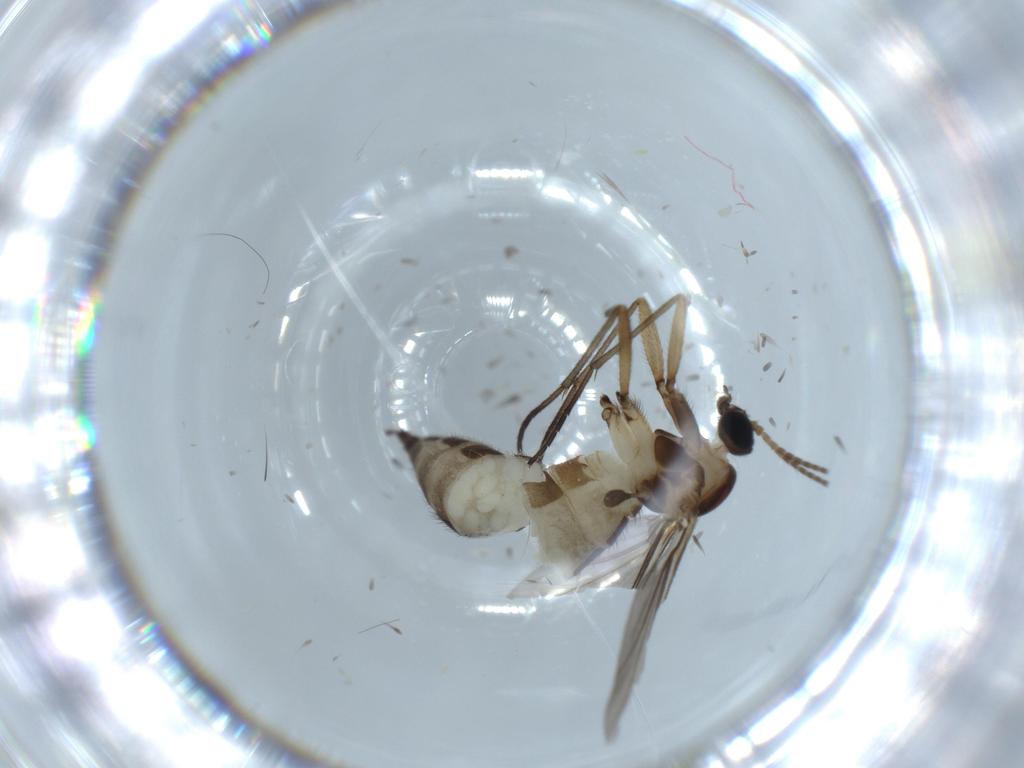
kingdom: Animalia
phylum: Arthropoda
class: Insecta
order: Diptera
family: Sciaridae
